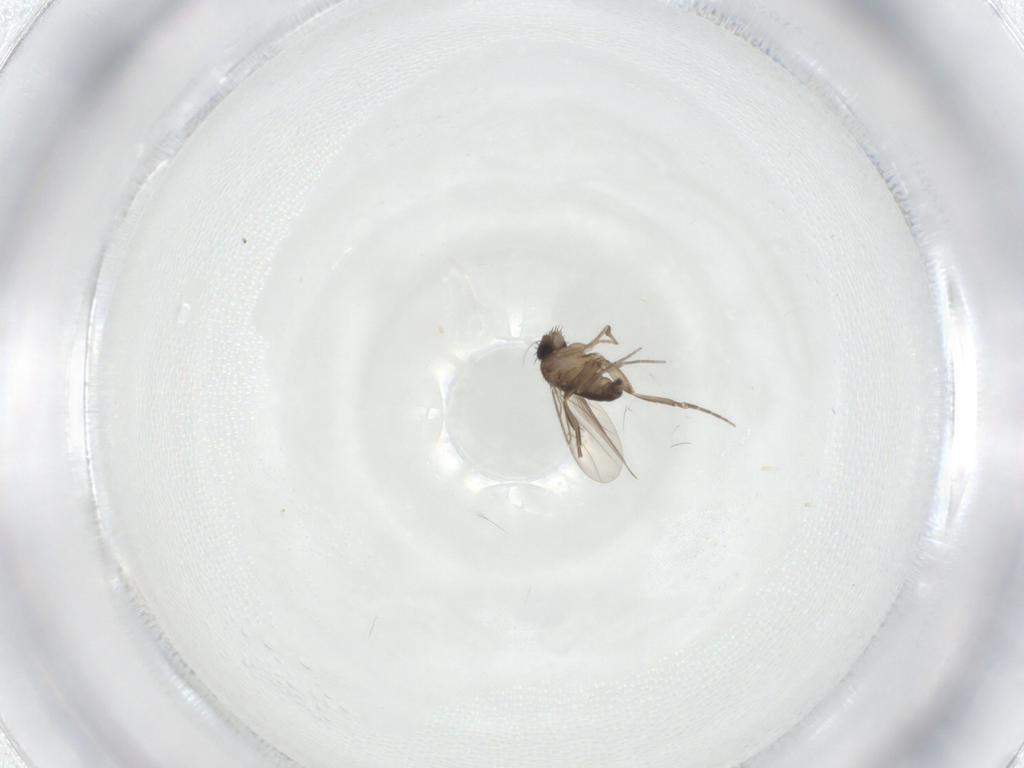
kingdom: Animalia
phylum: Arthropoda
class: Insecta
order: Diptera
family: Phoridae
